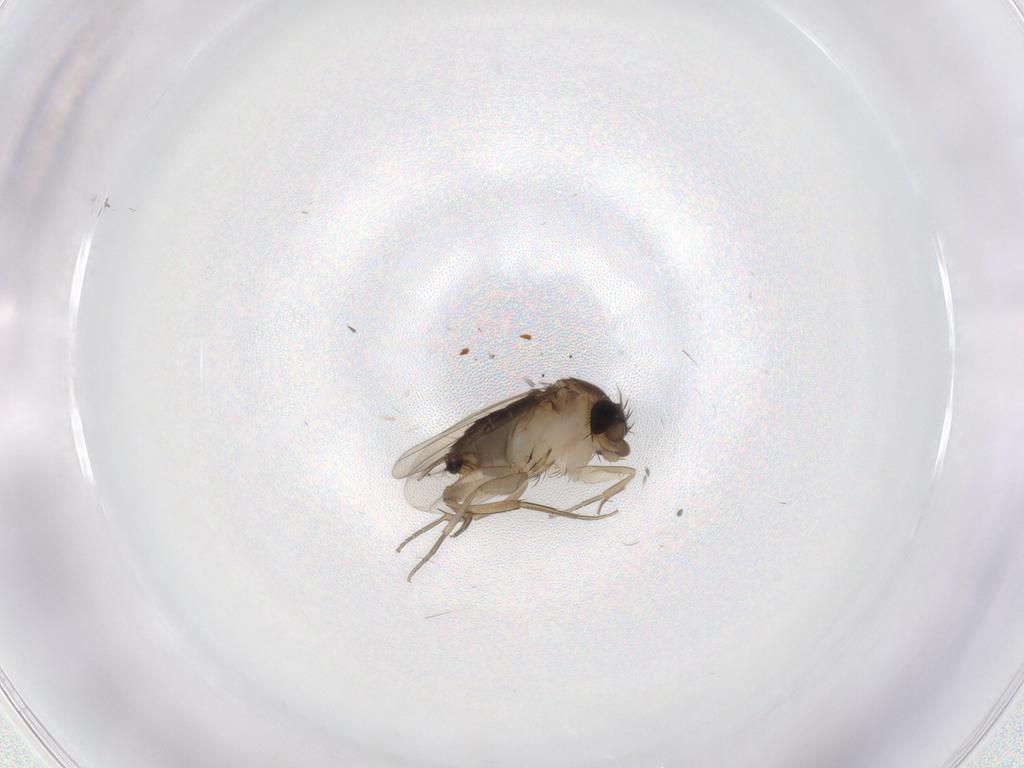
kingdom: Animalia
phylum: Arthropoda
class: Insecta
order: Diptera
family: Phoridae
